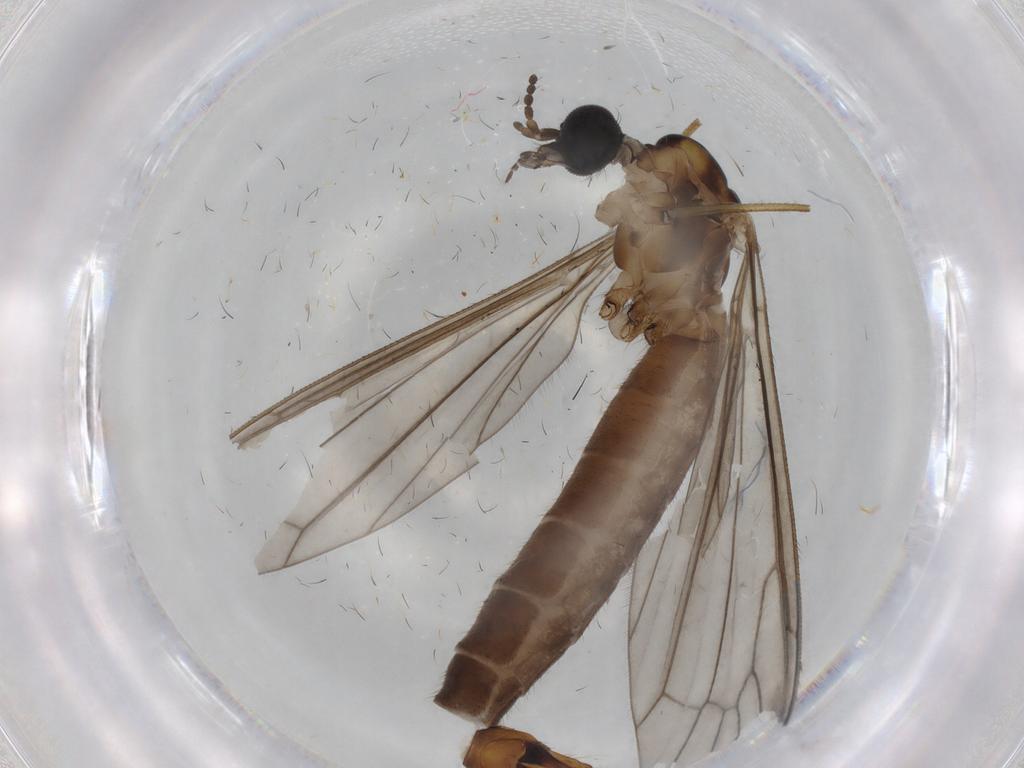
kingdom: Animalia
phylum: Arthropoda
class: Insecta
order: Diptera
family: Limoniidae
